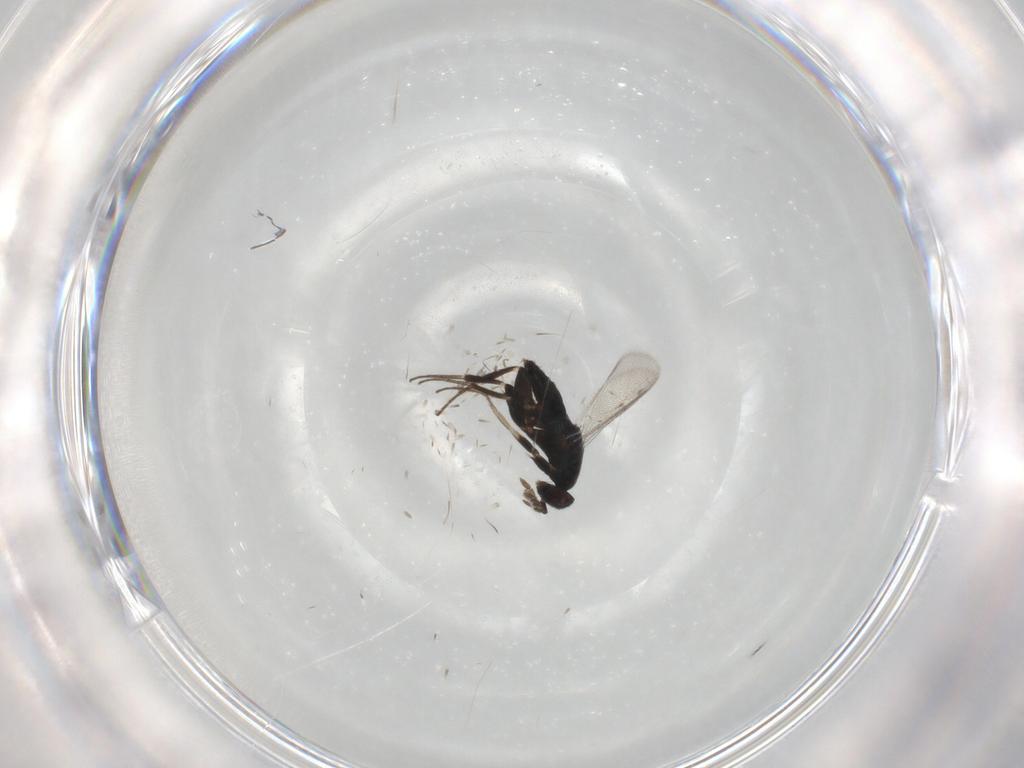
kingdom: Animalia
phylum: Arthropoda
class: Insecta
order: Hymenoptera
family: Eulophidae
